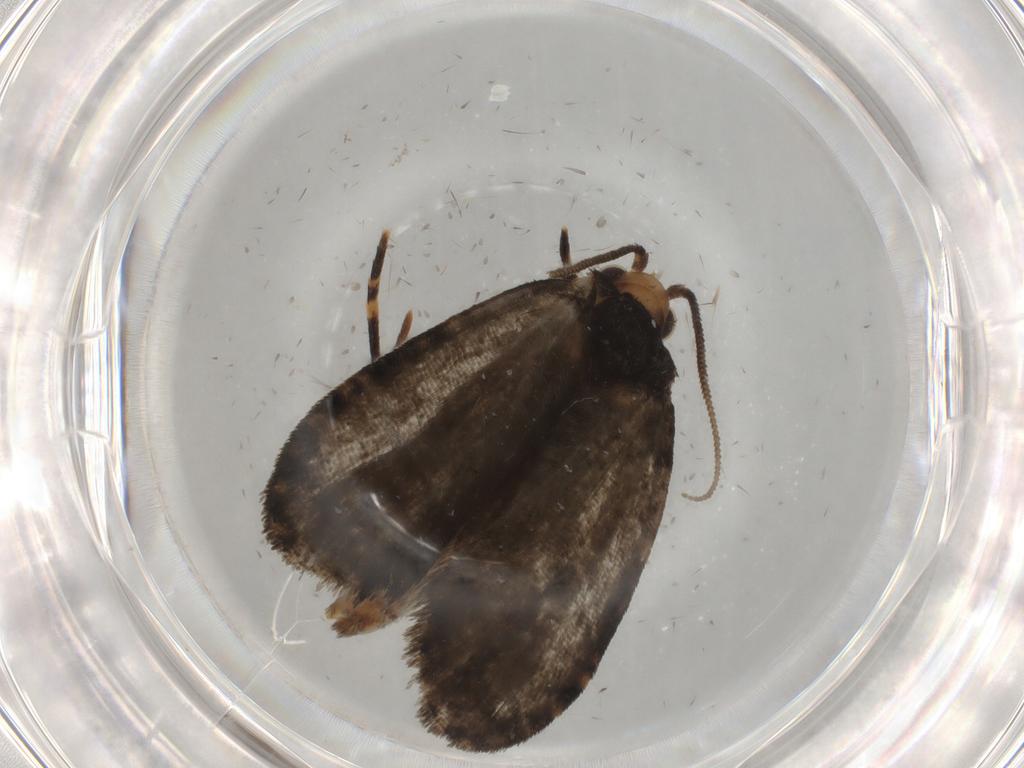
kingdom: Animalia
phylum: Arthropoda
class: Insecta
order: Lepidoptera
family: Tineidae
